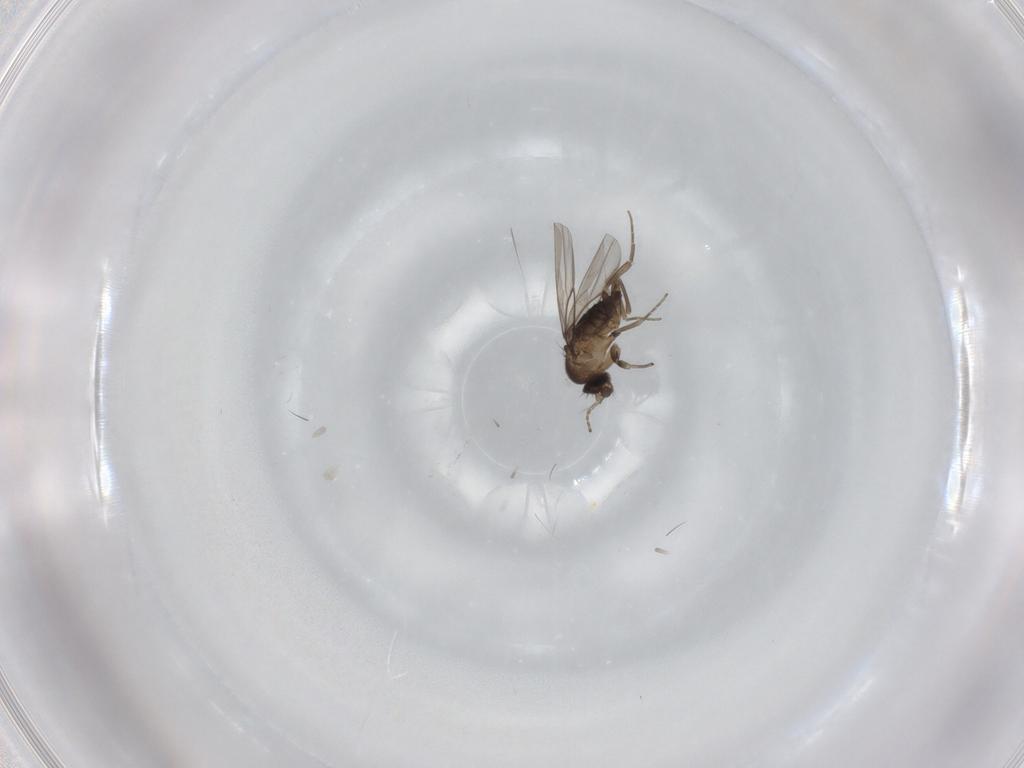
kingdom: Animalia
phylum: Arthropoda
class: Insecta
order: Diptera
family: Phoridae
